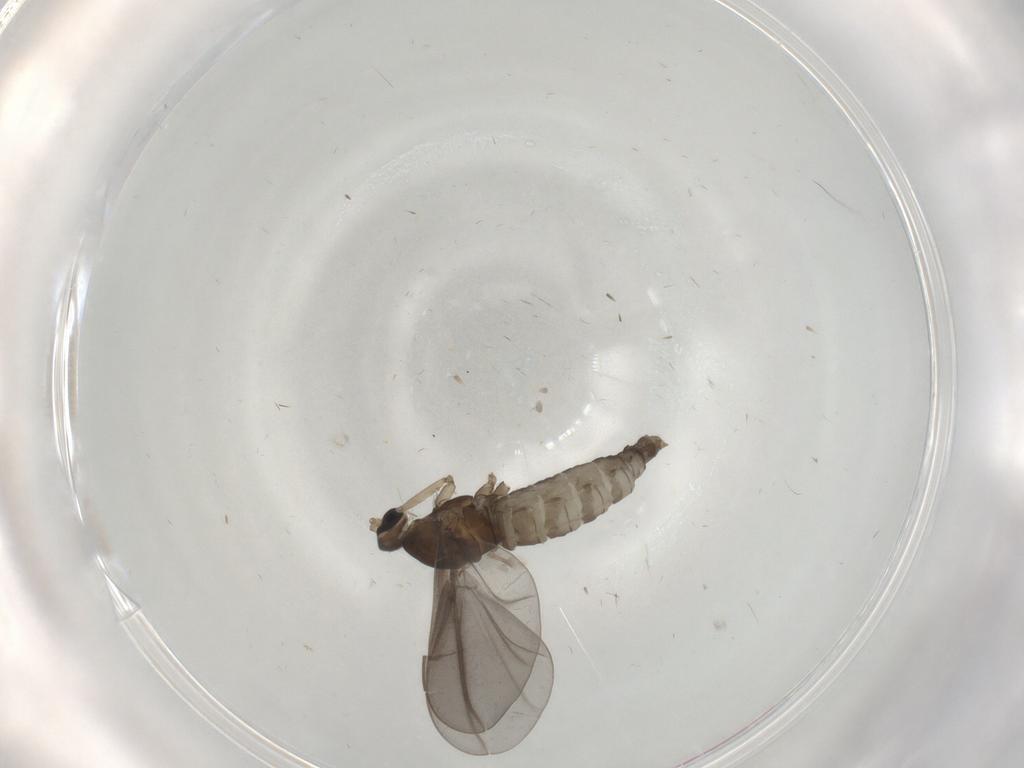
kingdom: Animalia
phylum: Arthropoda
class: Insecta
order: Diptera
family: Cecidomyiidae
